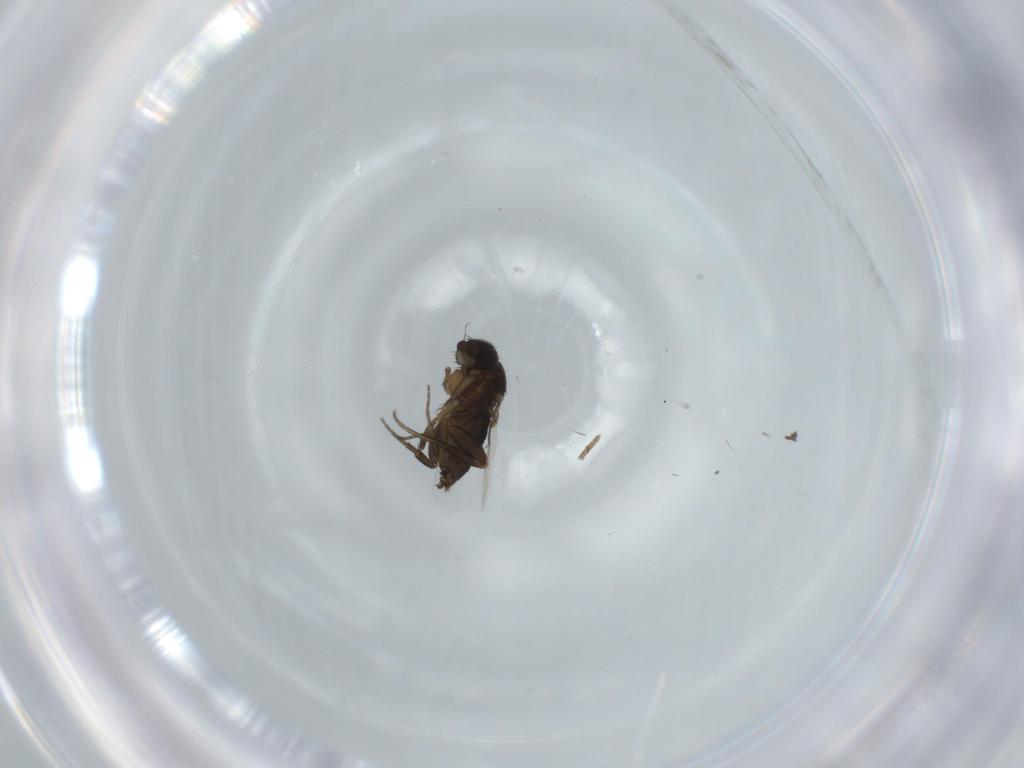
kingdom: Animalia
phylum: Arthropoda
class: Insecta
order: Diptera
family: Phoridae
